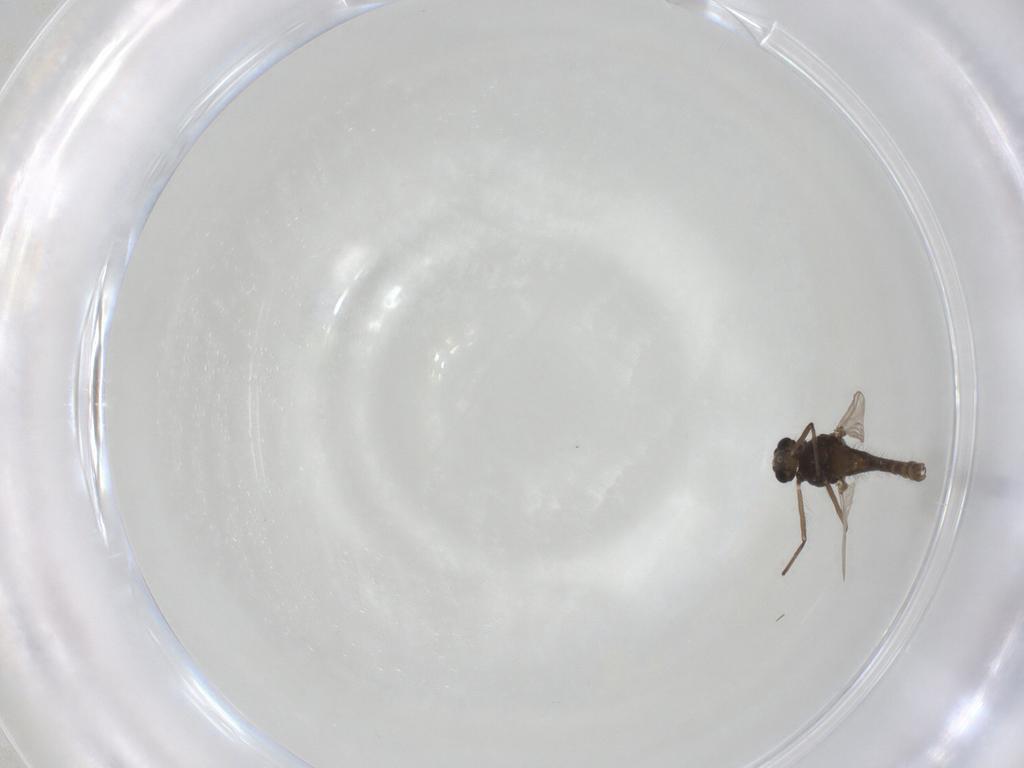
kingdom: Animalia
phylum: Arthropoda
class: Insecta
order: Diptera
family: Chironomidae
